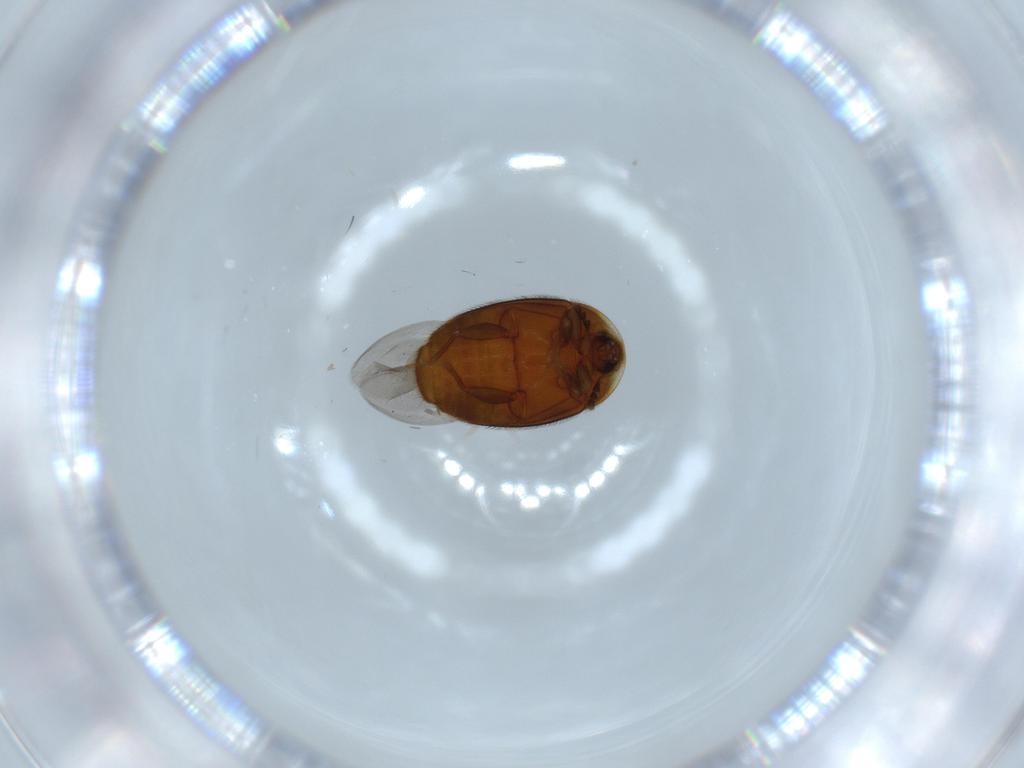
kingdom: Animalia
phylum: Arthropoda
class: Insecta
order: Coleoptera
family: Corylophidae
